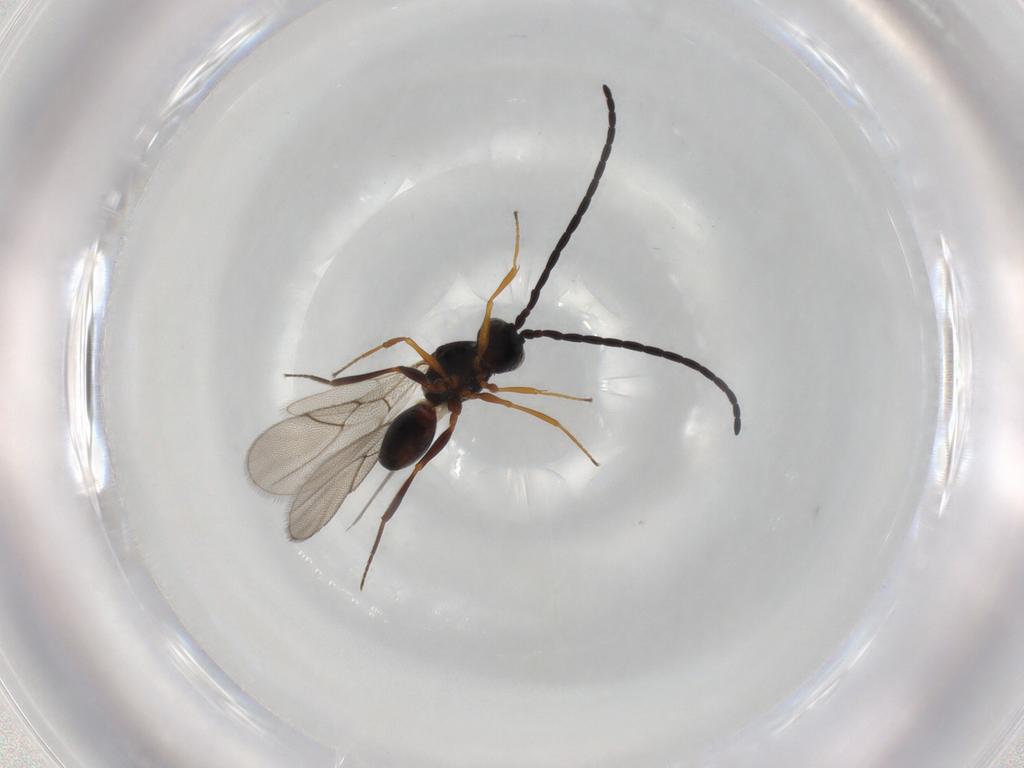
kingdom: Animalia
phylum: Arthropoda
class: Insecta
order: Hymenoptera
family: Figitidae
